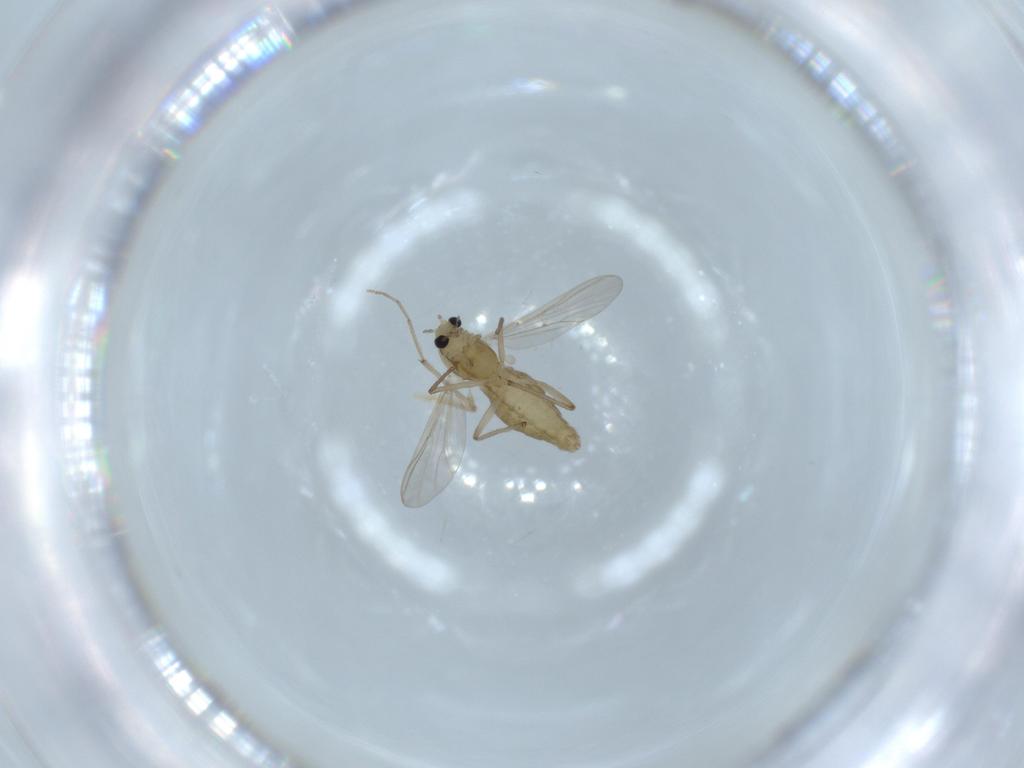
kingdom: Animalia
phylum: Arthropoda
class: Insecta
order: Diptera
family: Chironomidae
